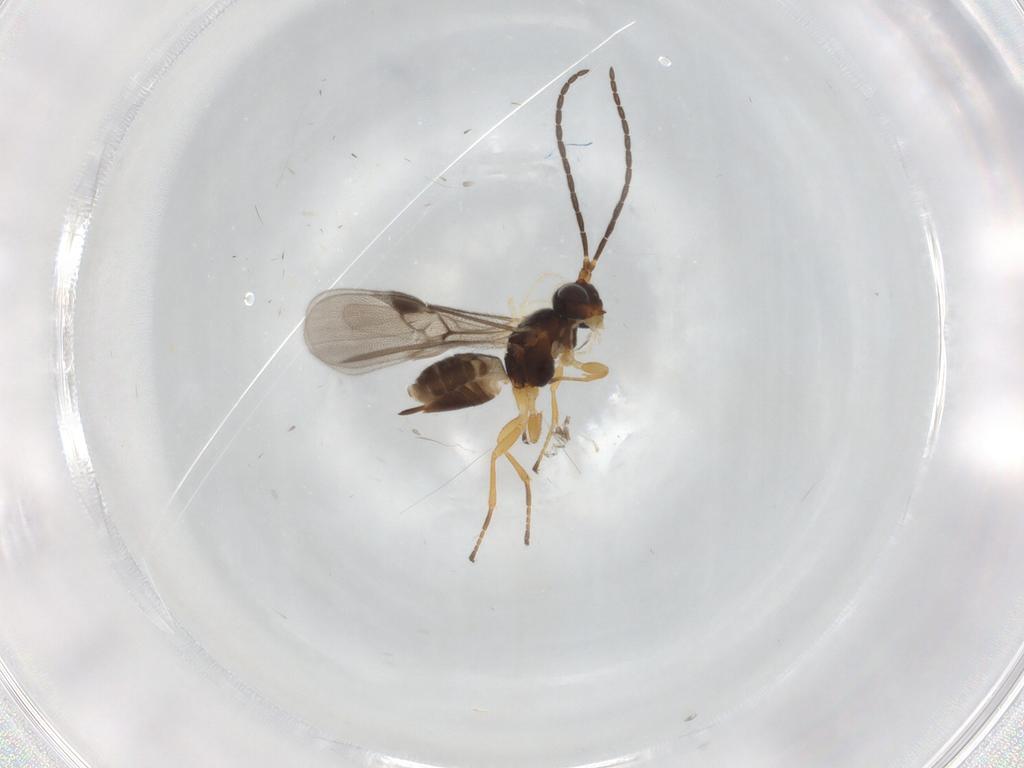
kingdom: Animalia
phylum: Arthropoda
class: Insecta
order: Hymenoptera
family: Braconidae
